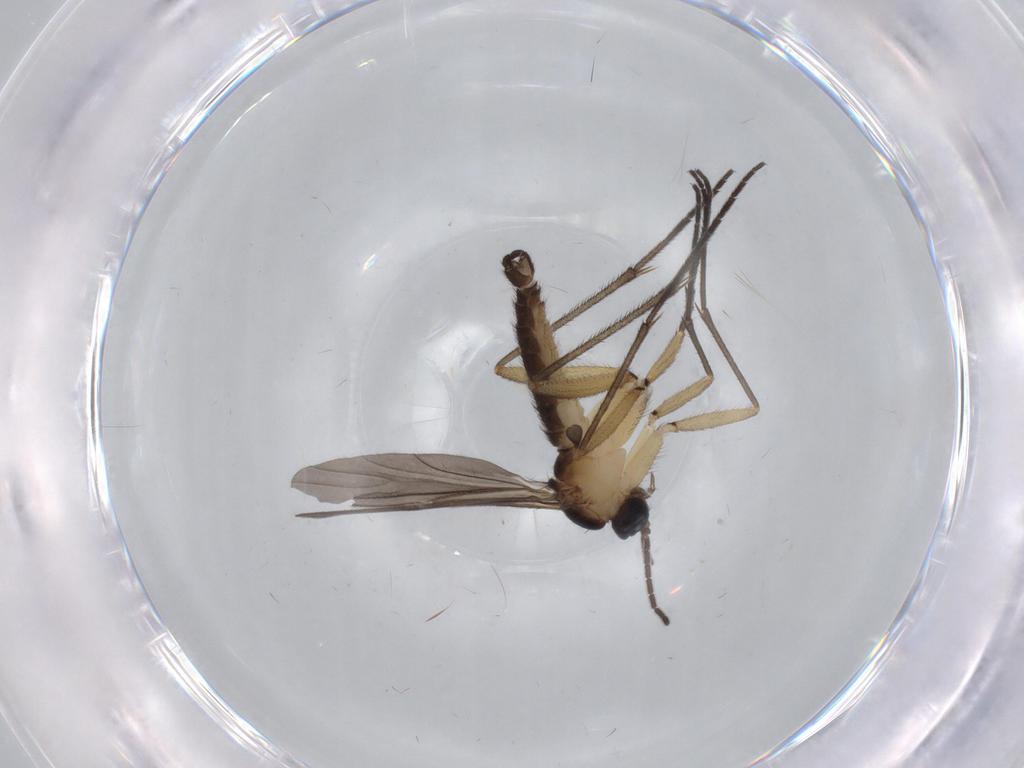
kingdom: Animalia
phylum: Arthropoda
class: Insecta
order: Diptera
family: Sciaridae
